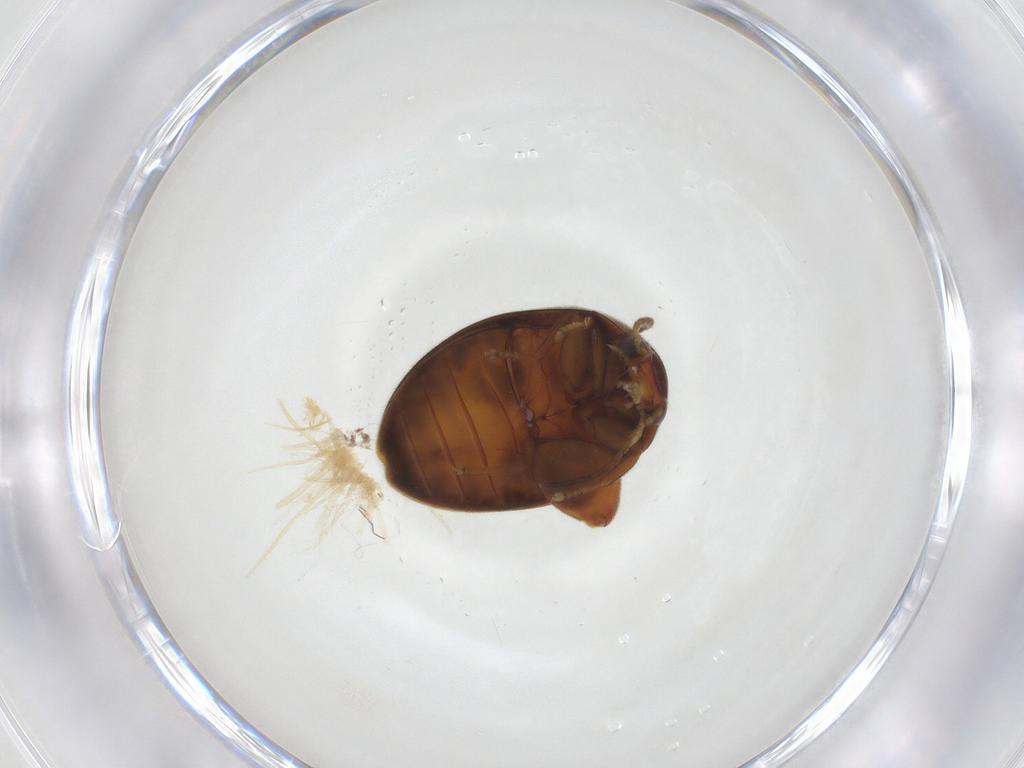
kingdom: Animalia
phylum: Arthropoda
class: Insecta
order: Coleoptera
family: Scirtidae
